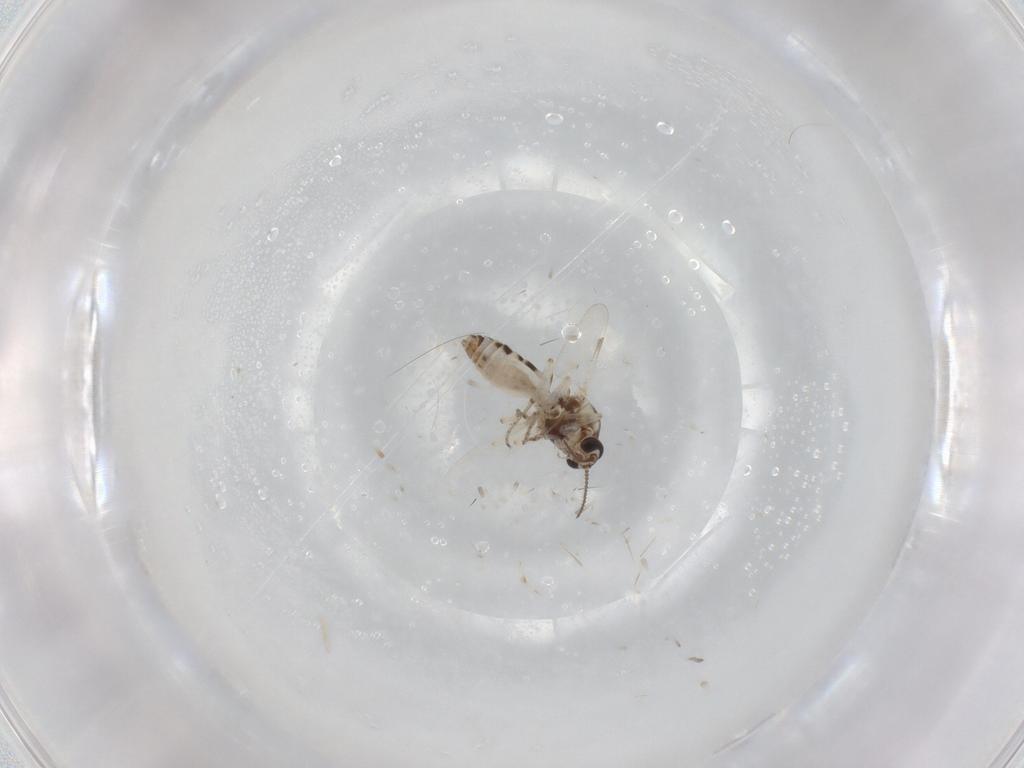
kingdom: Animalia
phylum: Arthropoda
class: Insecta
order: Diptera
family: Ceratopogonidae
